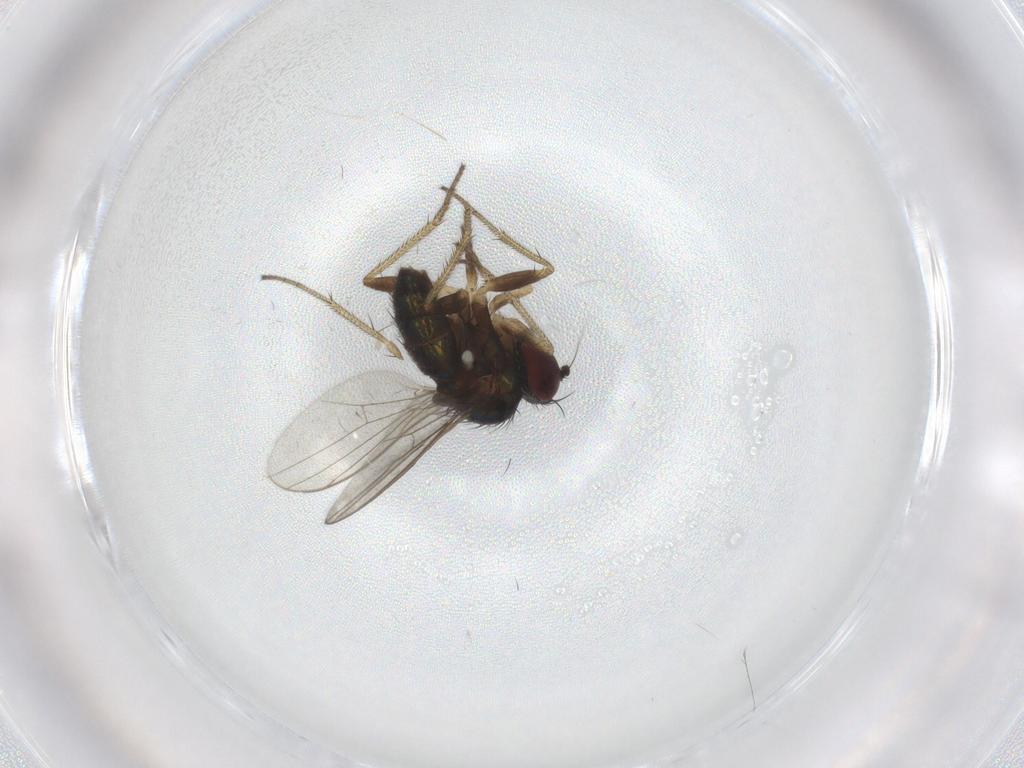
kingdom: Animalia
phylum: Arthropoda
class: Insecta
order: Diptera
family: Dolichopodidae
